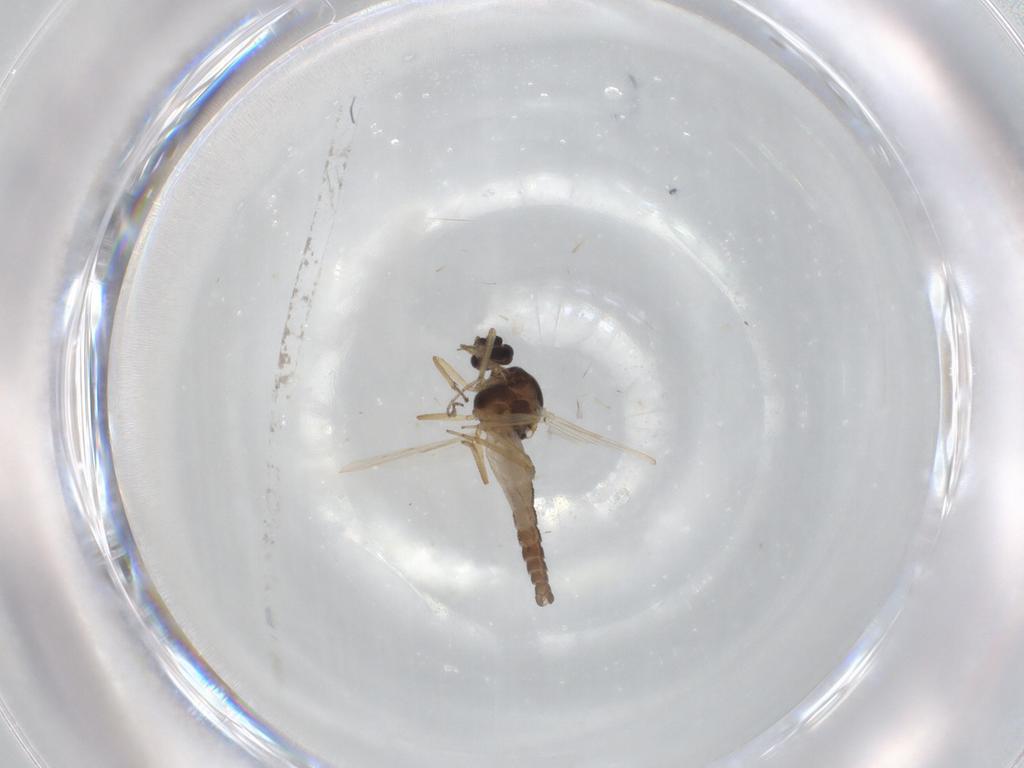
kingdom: Animalia
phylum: Arthropoda
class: Insecta
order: Diptera
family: Ceratopogonidae
